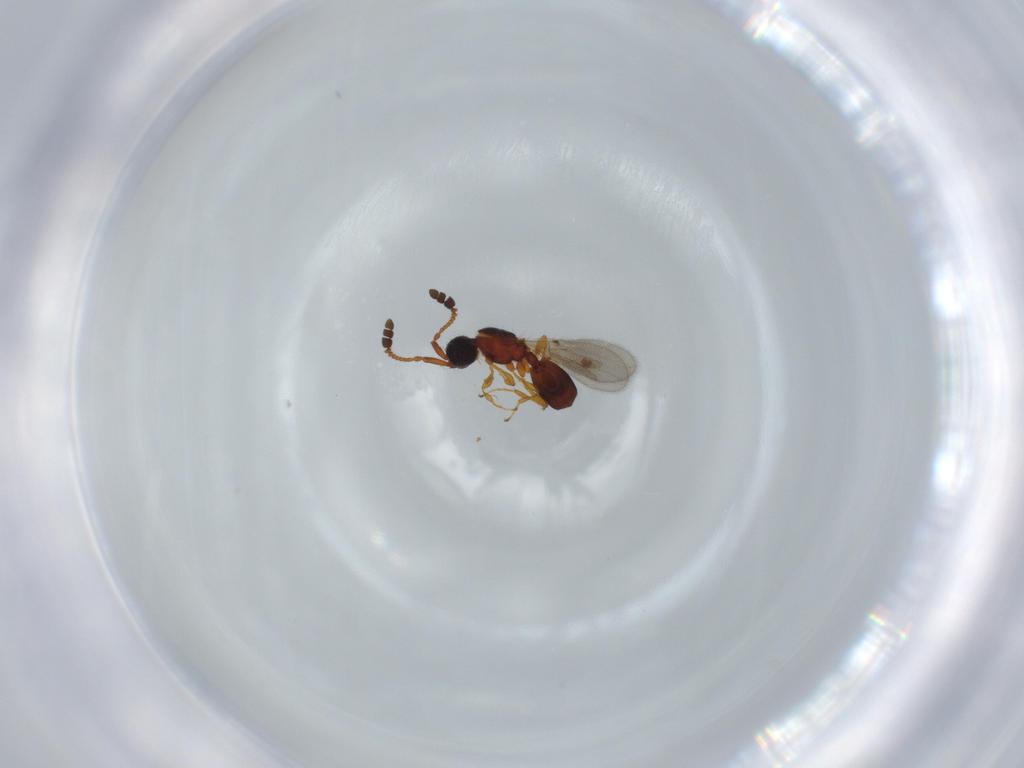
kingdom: Animalia
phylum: Arthropoda
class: Insecta
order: Hymenoptera
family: Diapriidae
